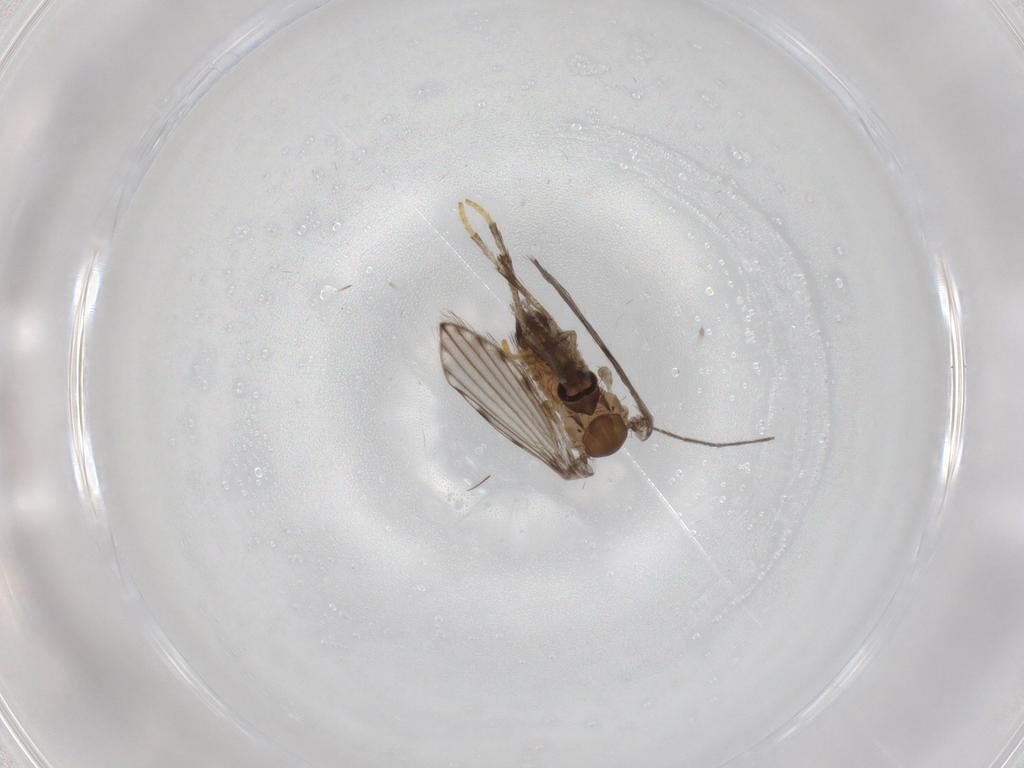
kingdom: Animalia
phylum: Arthropoda
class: Insecta
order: Diptera
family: Chironomidae
